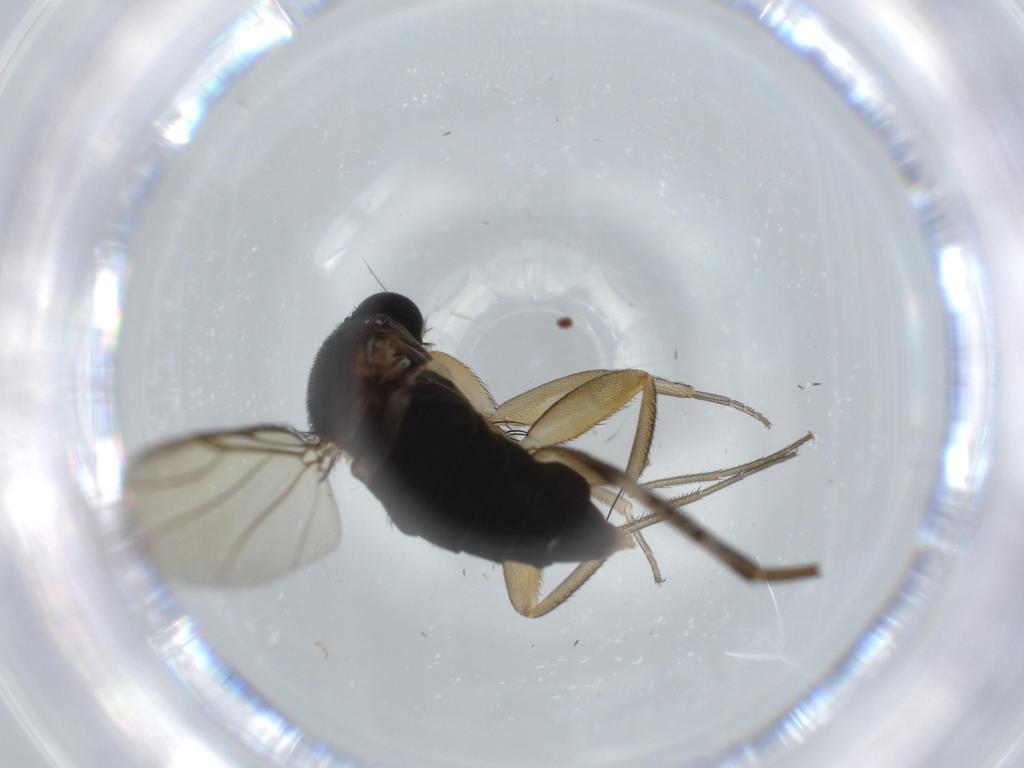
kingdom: Animalia
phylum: Arthropoda
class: Insecta
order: Diptera
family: Phoridae
